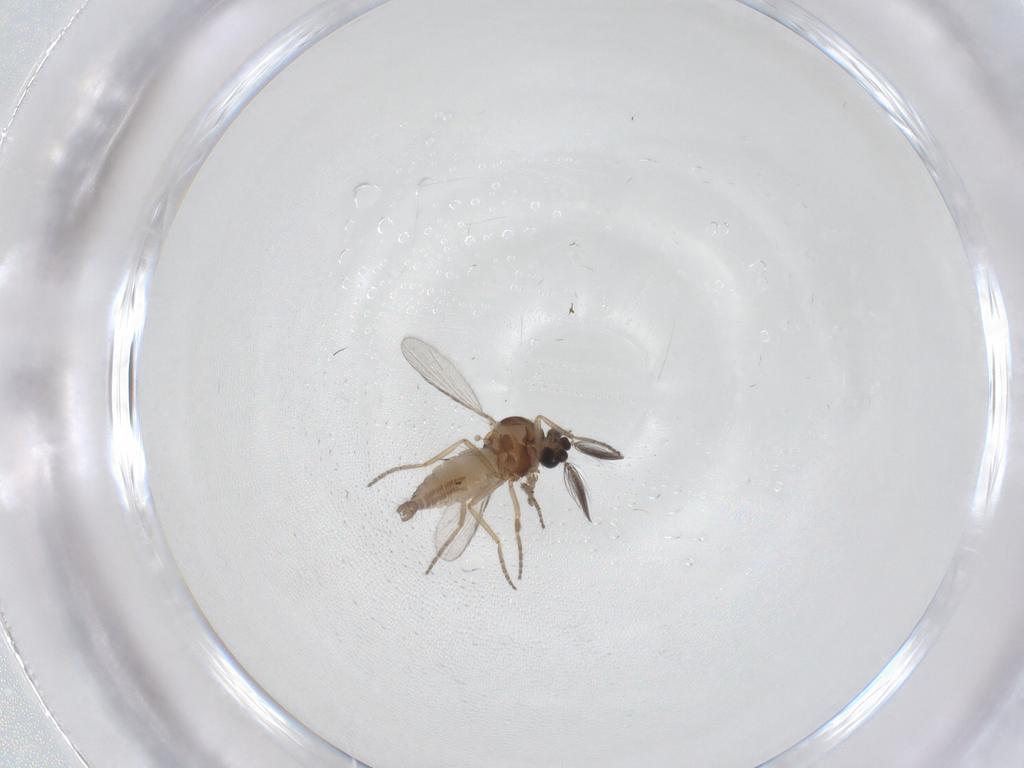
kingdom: Animalia
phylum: Arthropoda
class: Insecta
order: Diptera
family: Ceratopogonidae
